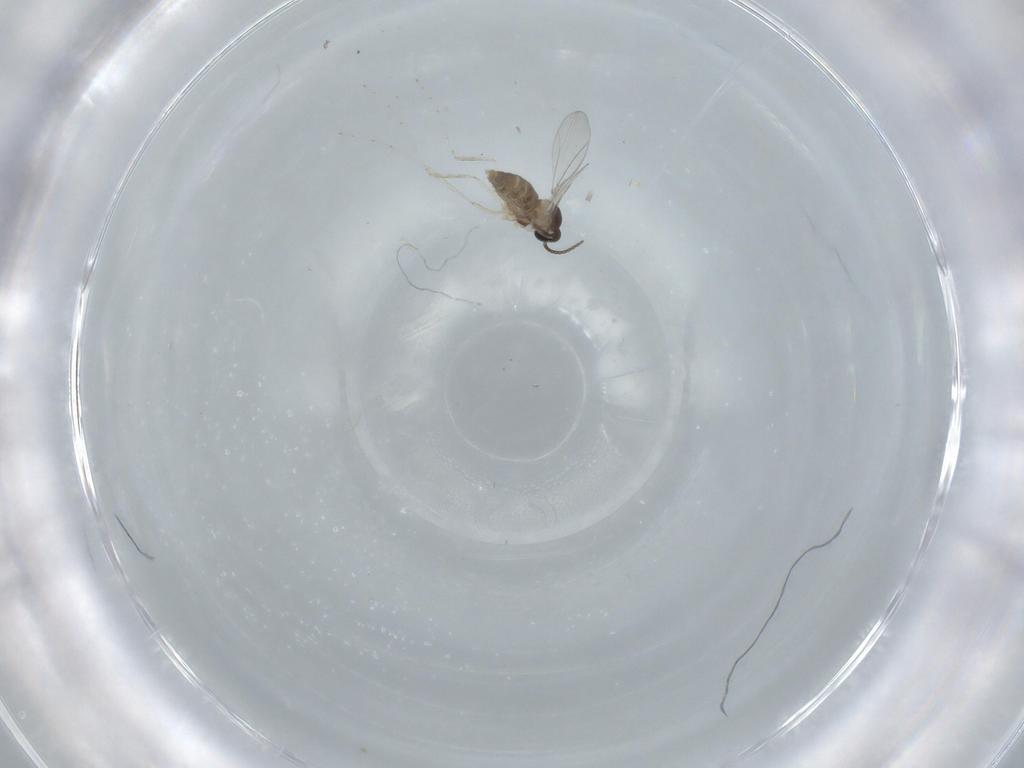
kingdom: Animalia
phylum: Arthropoda
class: Insecta
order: Diptera
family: Cecidomyiidae
